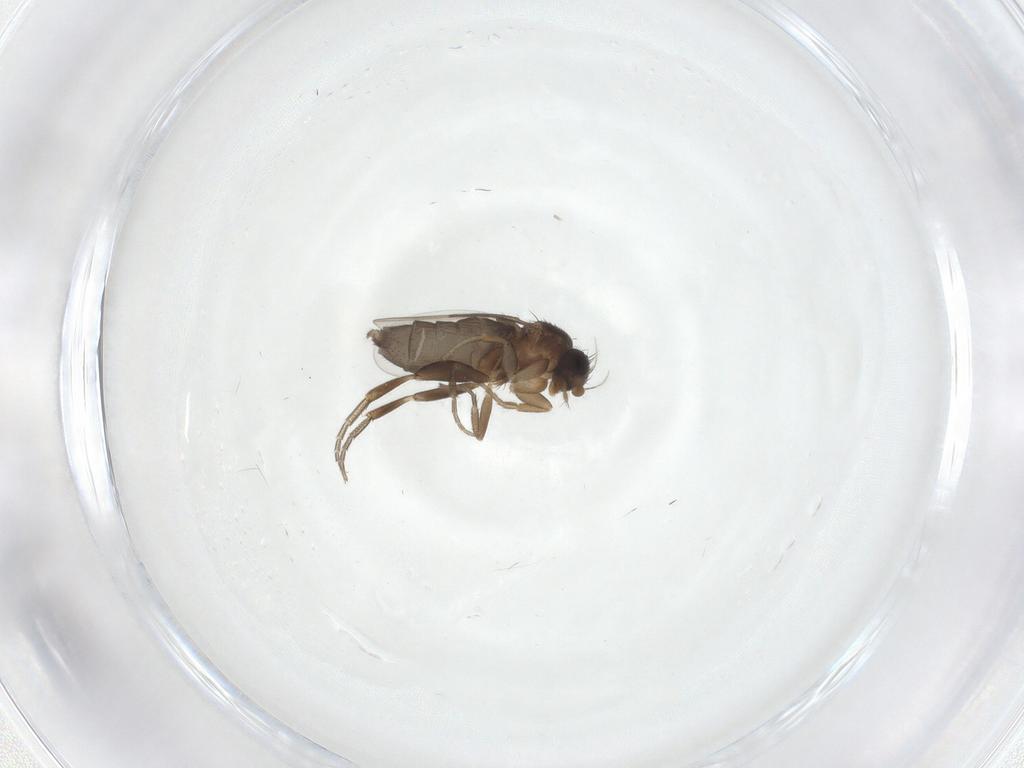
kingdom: Animalia
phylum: Arthropoda
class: Insecta
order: Diptera
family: Phoridae
